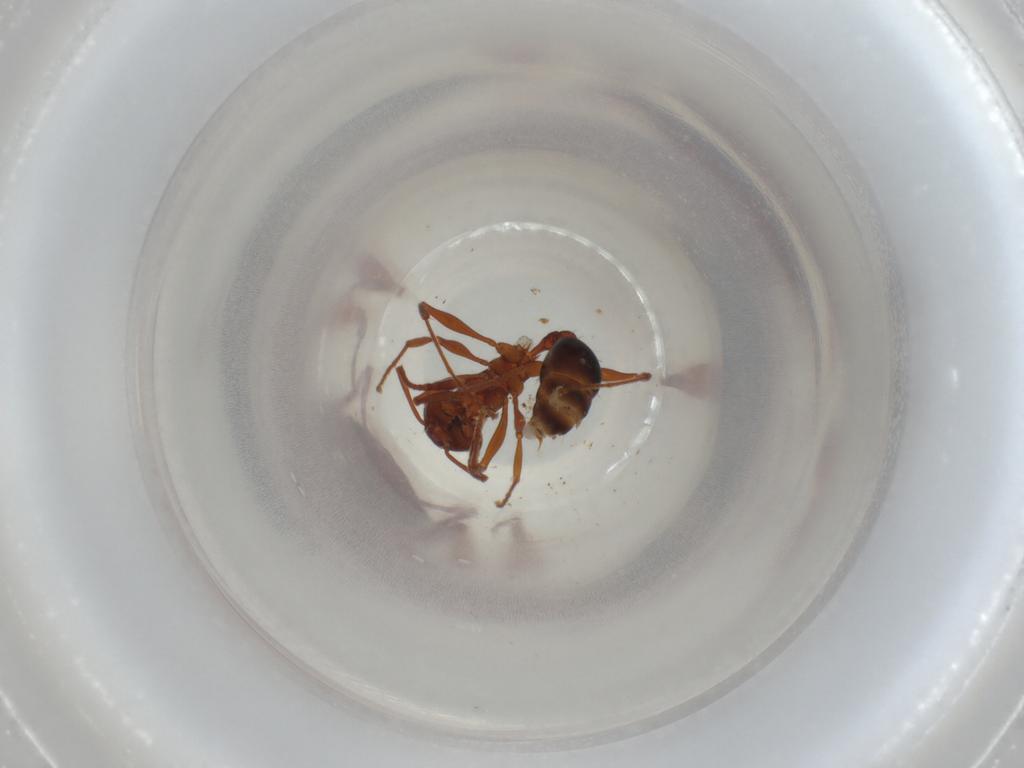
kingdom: Animalia
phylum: Arthropoda
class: Insecta
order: Hymenoptera
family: Formicidae
